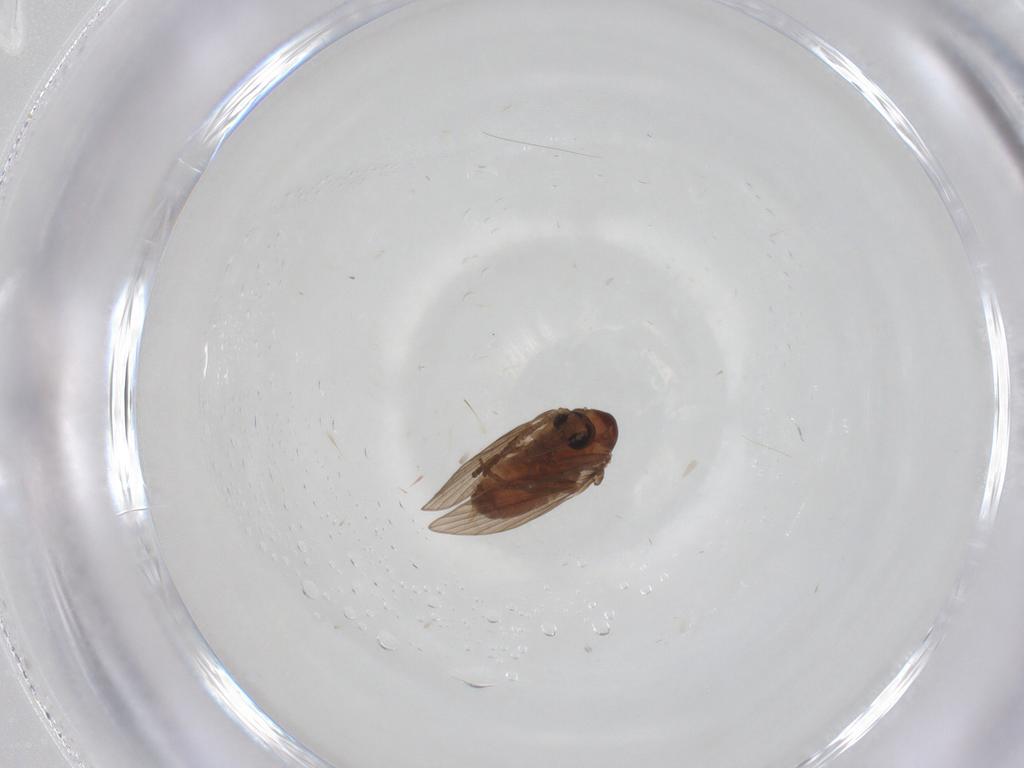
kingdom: Animalia
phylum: Arthropoda
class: Insecta
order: Diptera
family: Psychodidae
